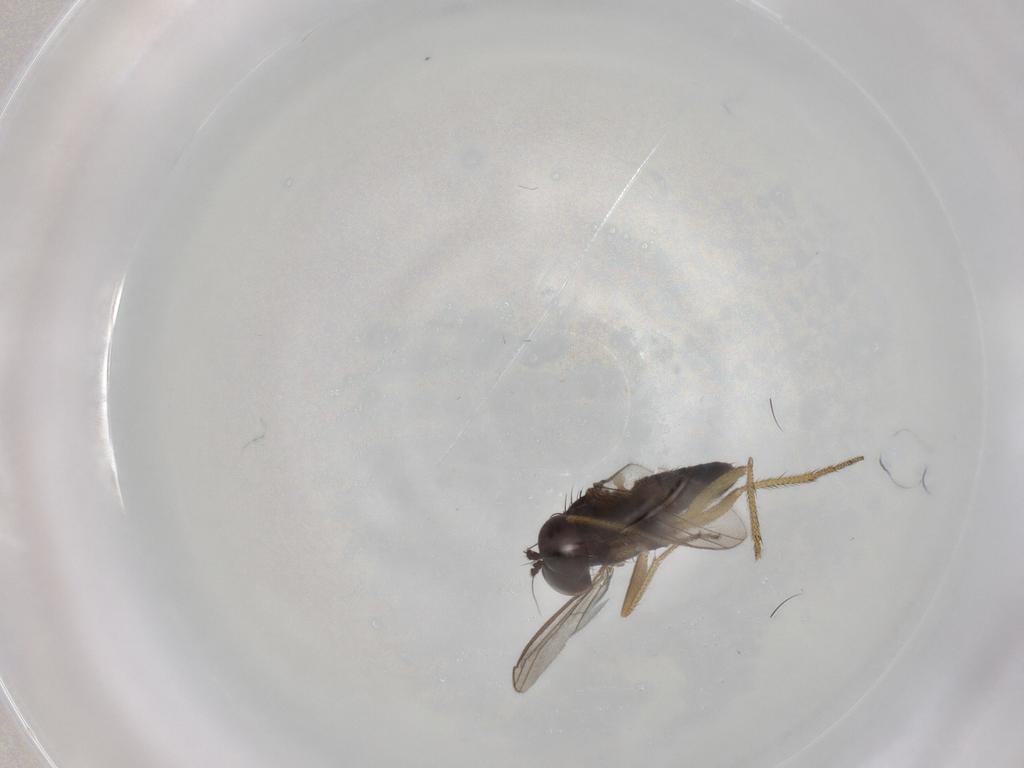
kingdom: Animalia
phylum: Arthropoda
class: Insecta
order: Diptera
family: Dolichopodidae
